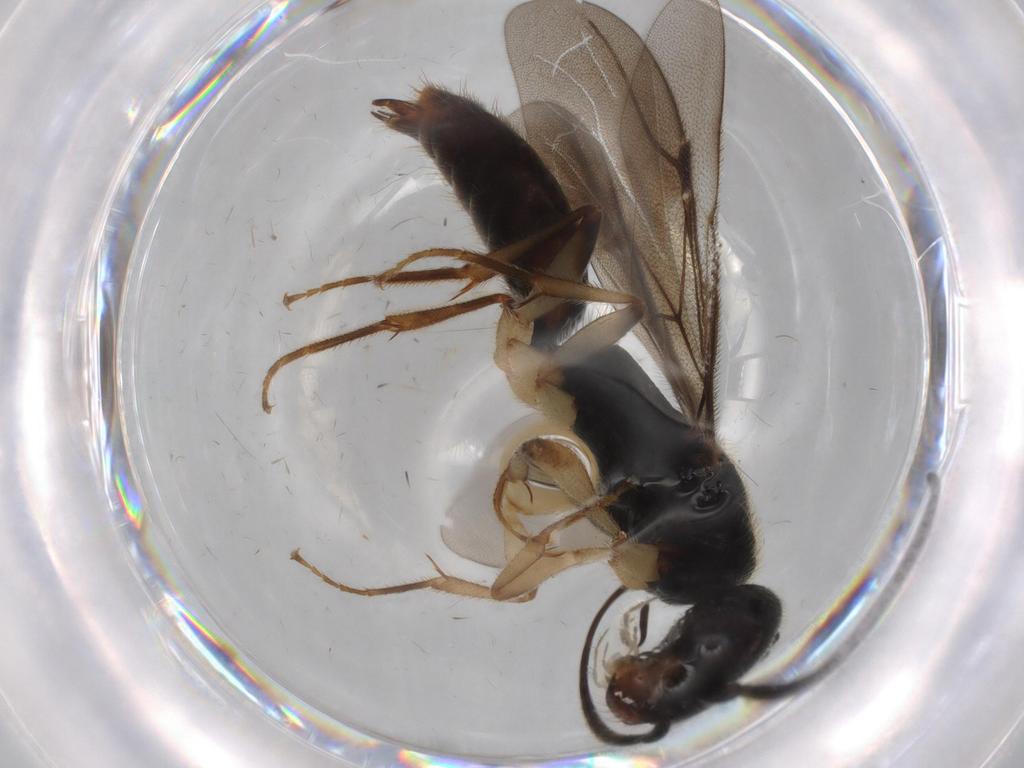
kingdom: Animalia
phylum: Arthropoda
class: Insecta
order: Hymenoptera
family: Bethylidae
